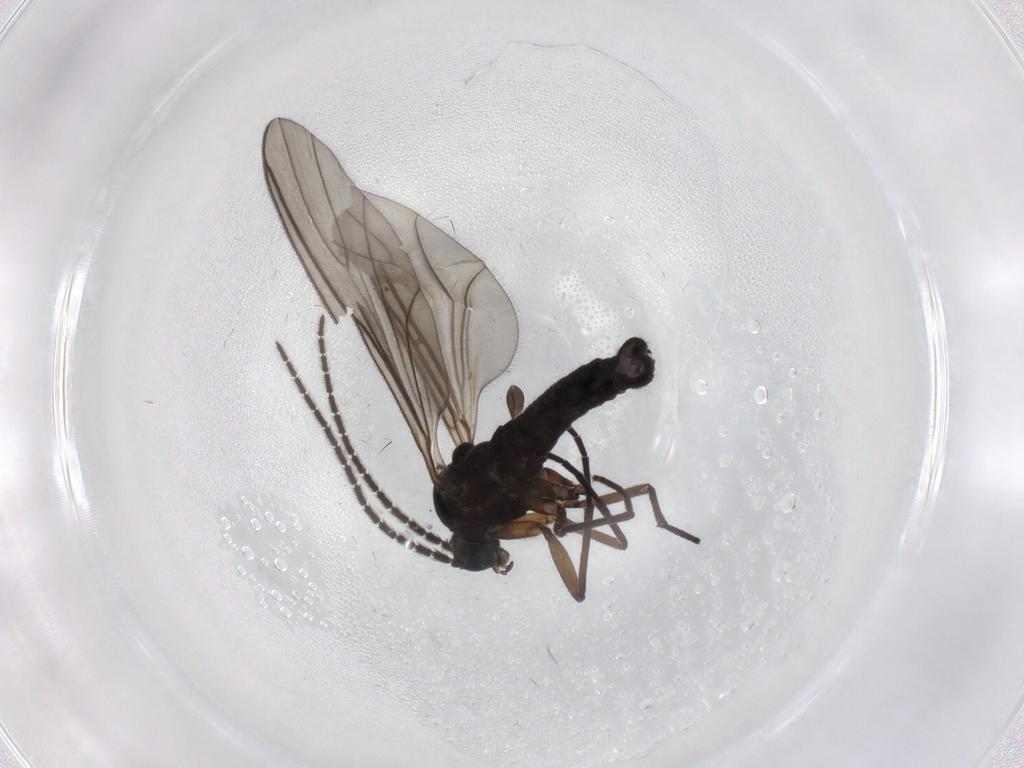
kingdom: Animalia
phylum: Arthropoda
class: Insecta
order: Diptera
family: Sciaridae
